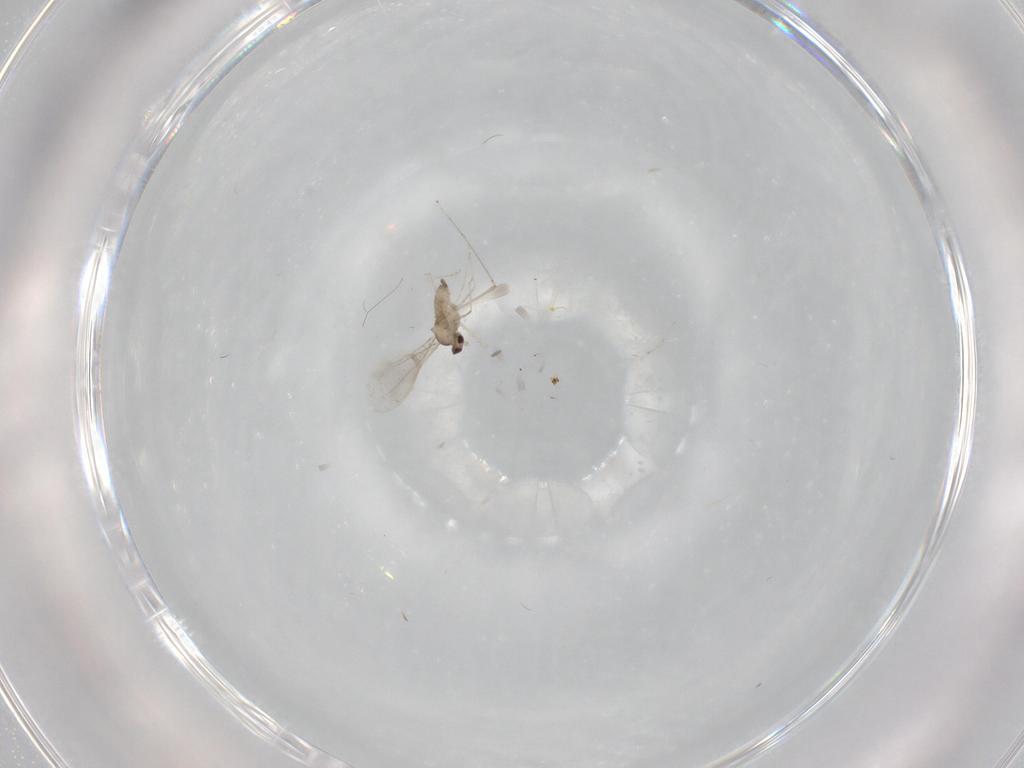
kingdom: Animalia
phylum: Arthropoda
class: Insecta
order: Diptera
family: Cecidomyiidae
